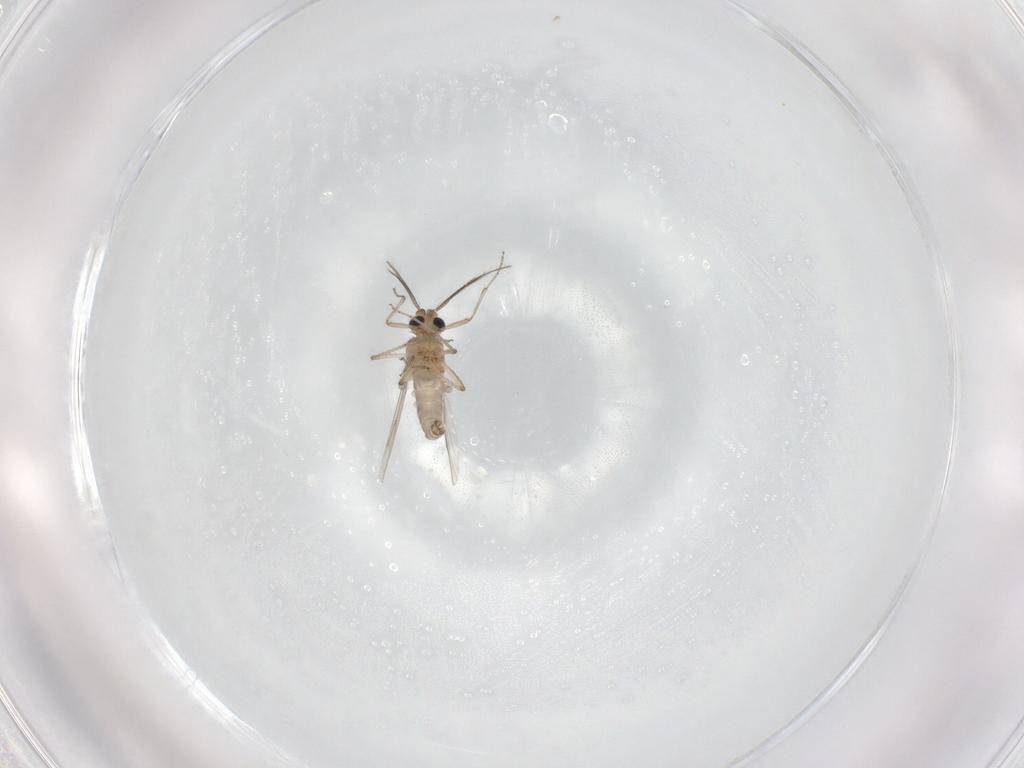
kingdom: Animalia
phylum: Arthropoda
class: Insecta
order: Diptera
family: Ceratopogonidae
